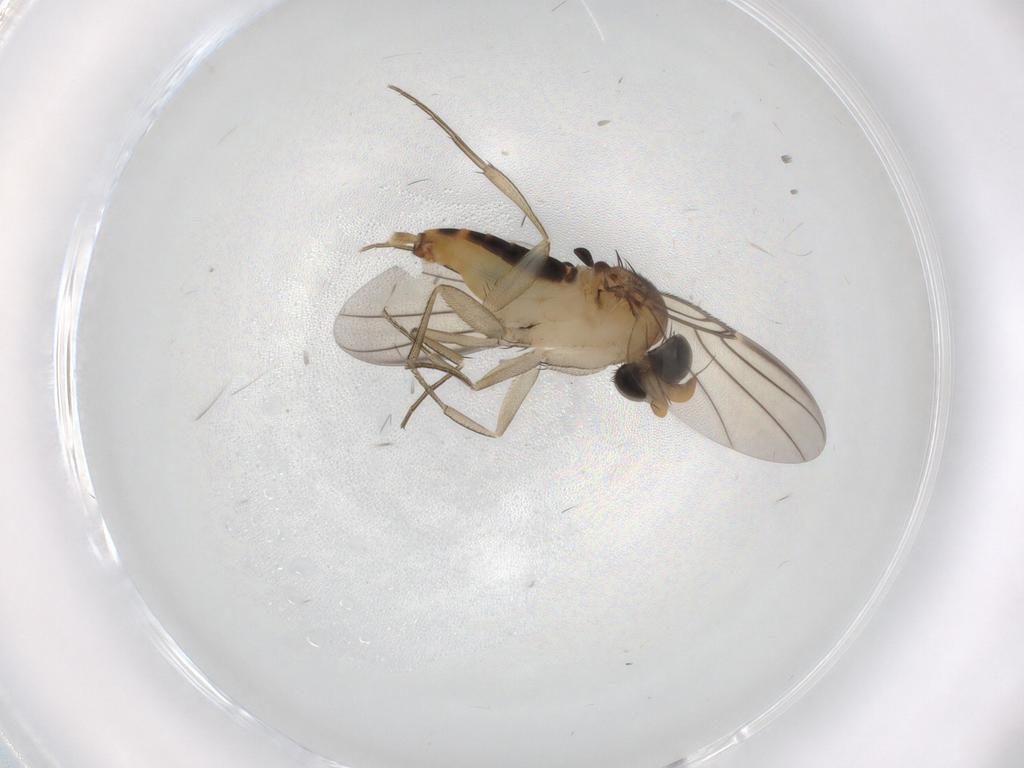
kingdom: Animalia
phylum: Arthropoda
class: Insecta
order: Diptera
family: Phoridae
